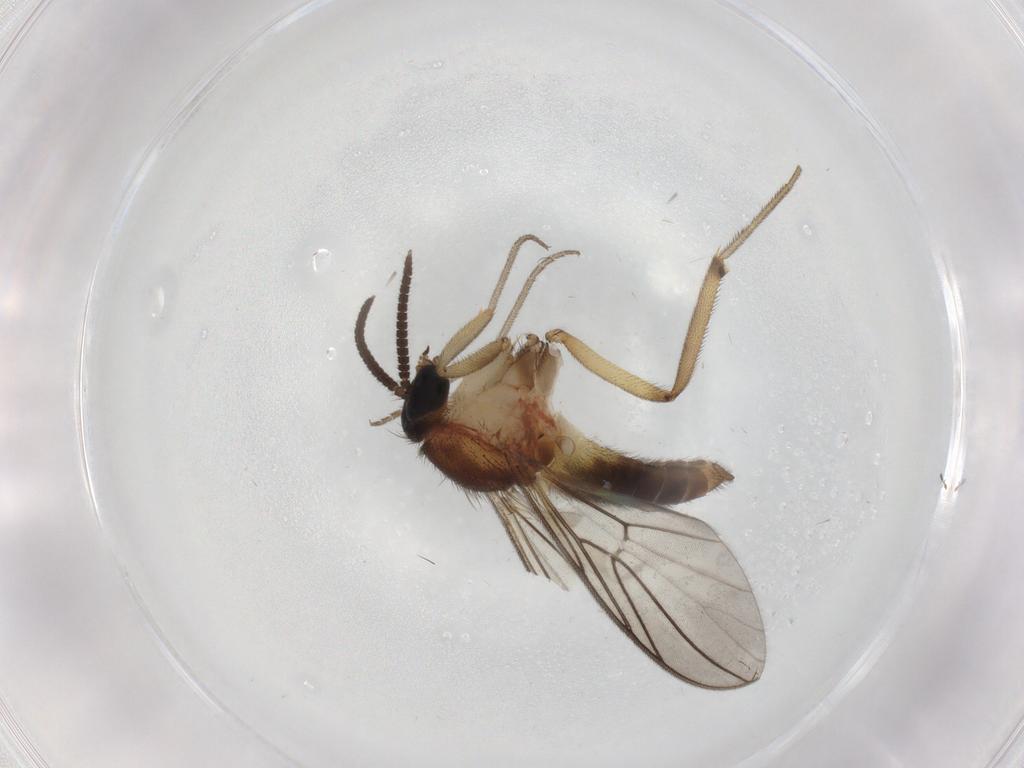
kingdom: Animalia
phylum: Arthropoda
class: Insecta
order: Diptera
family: Anisopodidae
